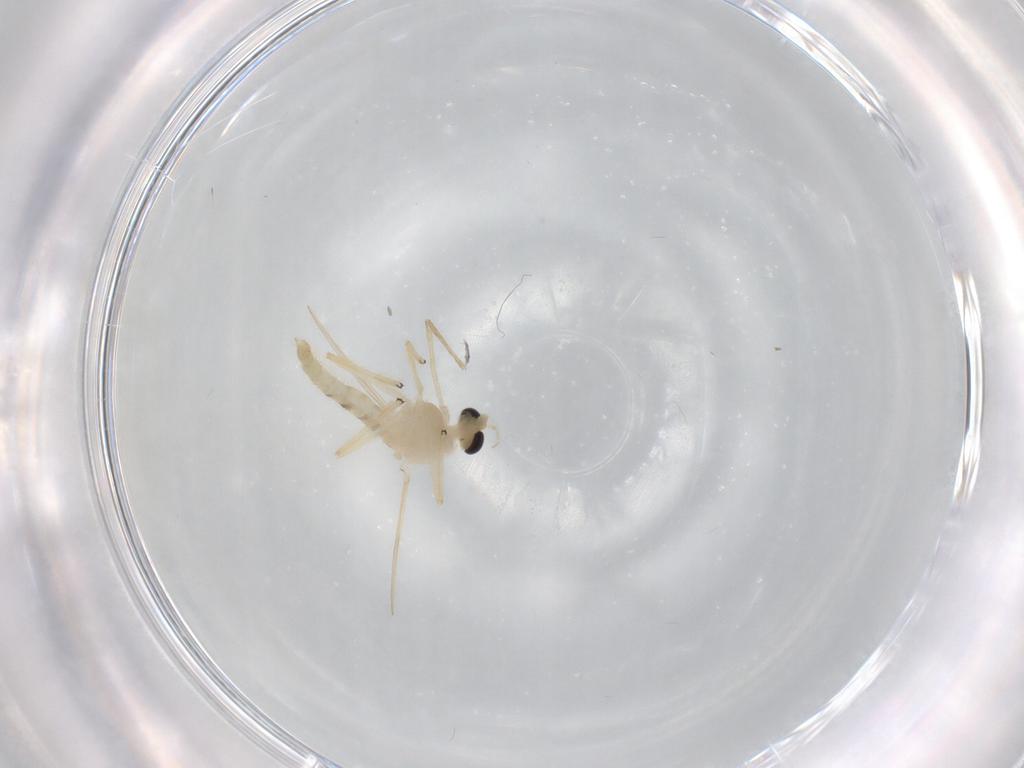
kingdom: Animalia
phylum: Arthropoda
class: Insecta
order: Diptera
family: Chironomidae
